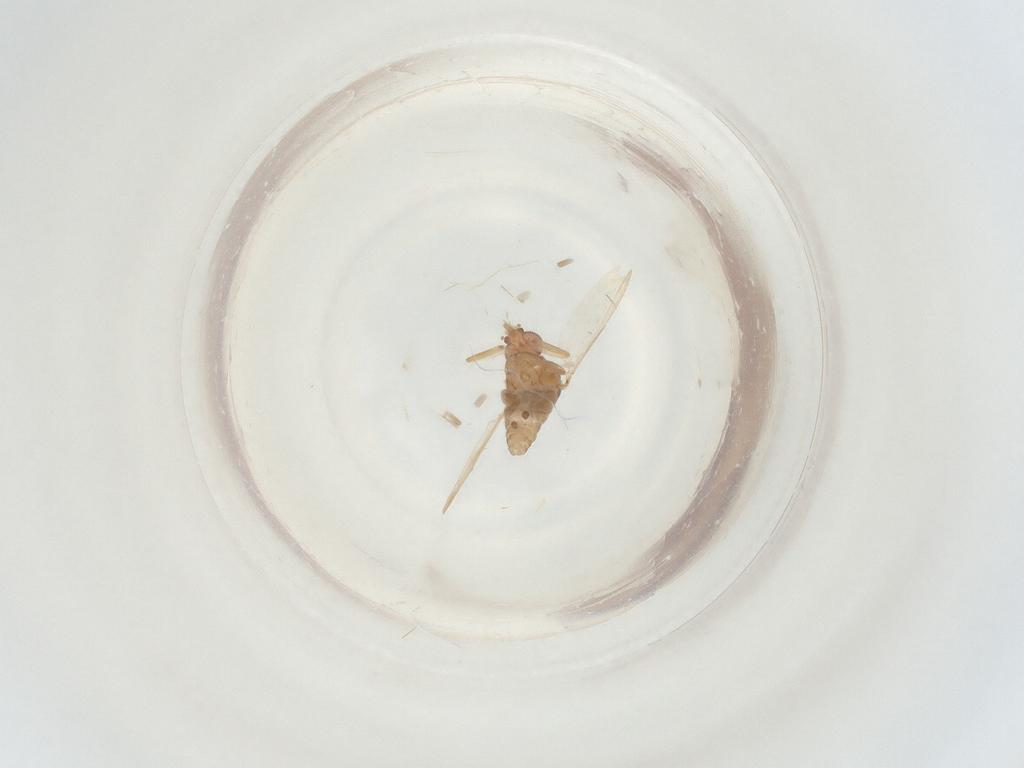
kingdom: Animalia
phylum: Arthropoda
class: Insecta
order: Diptera
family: Ceratopogonidae
